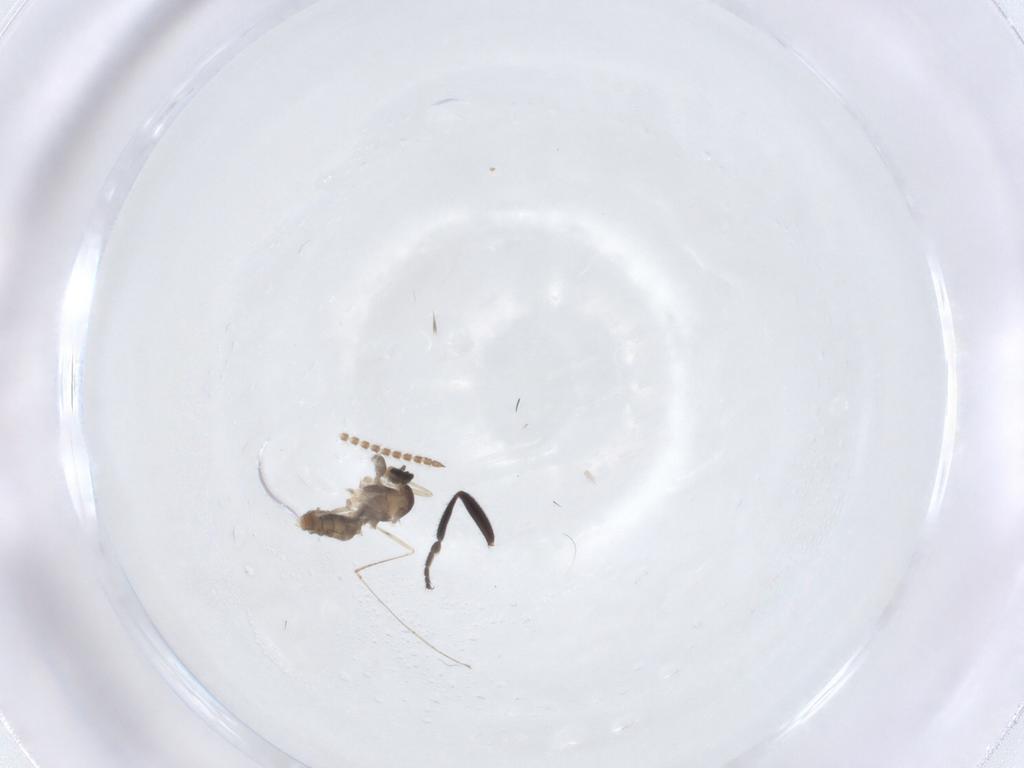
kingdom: Animalia
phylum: Arthropoda
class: Insecta
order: Diptera
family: Cecidomyiidae
